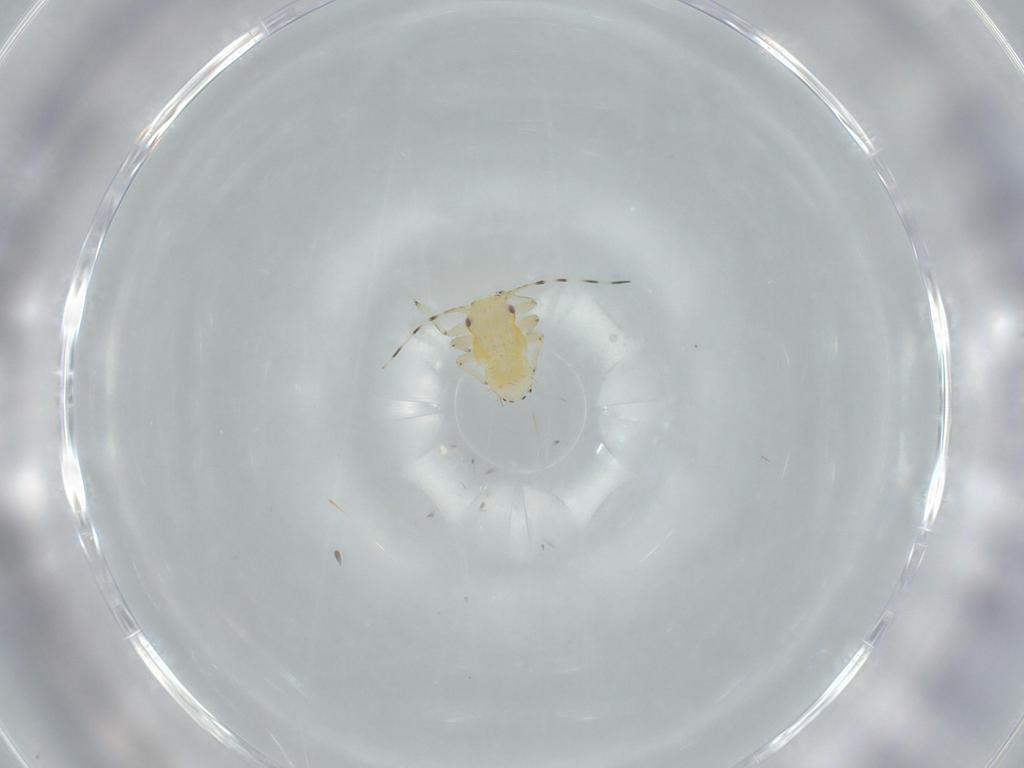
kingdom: Animalia
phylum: Arthropoda
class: Insecta
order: Hemiptera
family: Psyllidae
